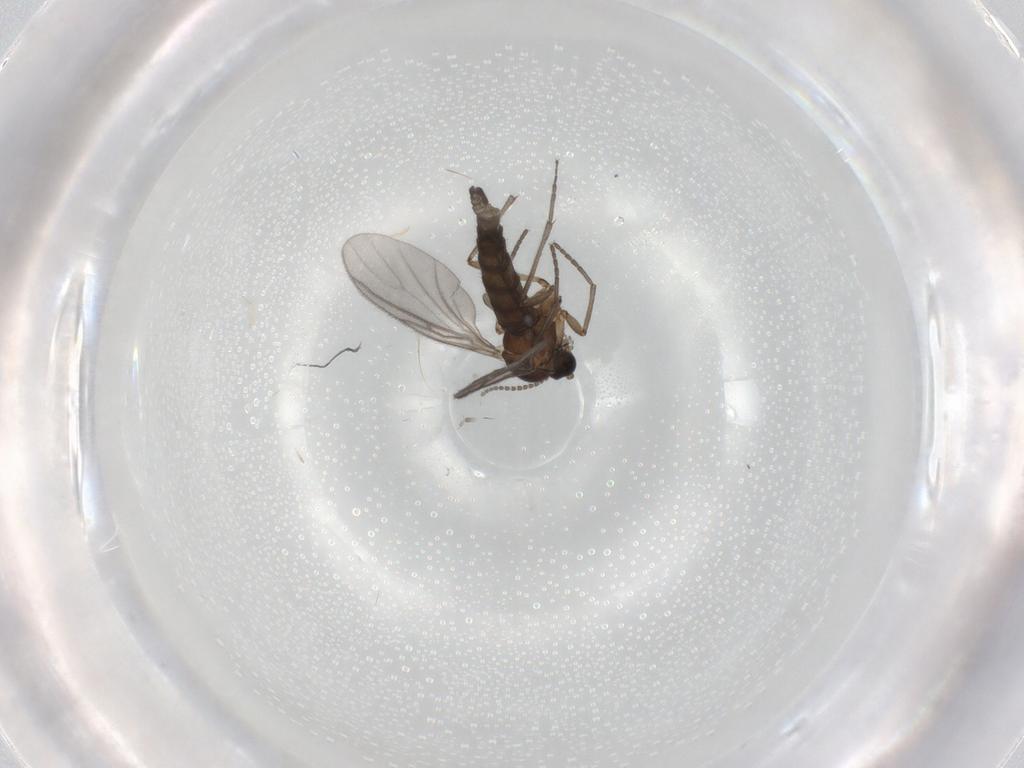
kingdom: Animalia
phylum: Arthropoda
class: Insecta
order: Diptera
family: Sciaridae
